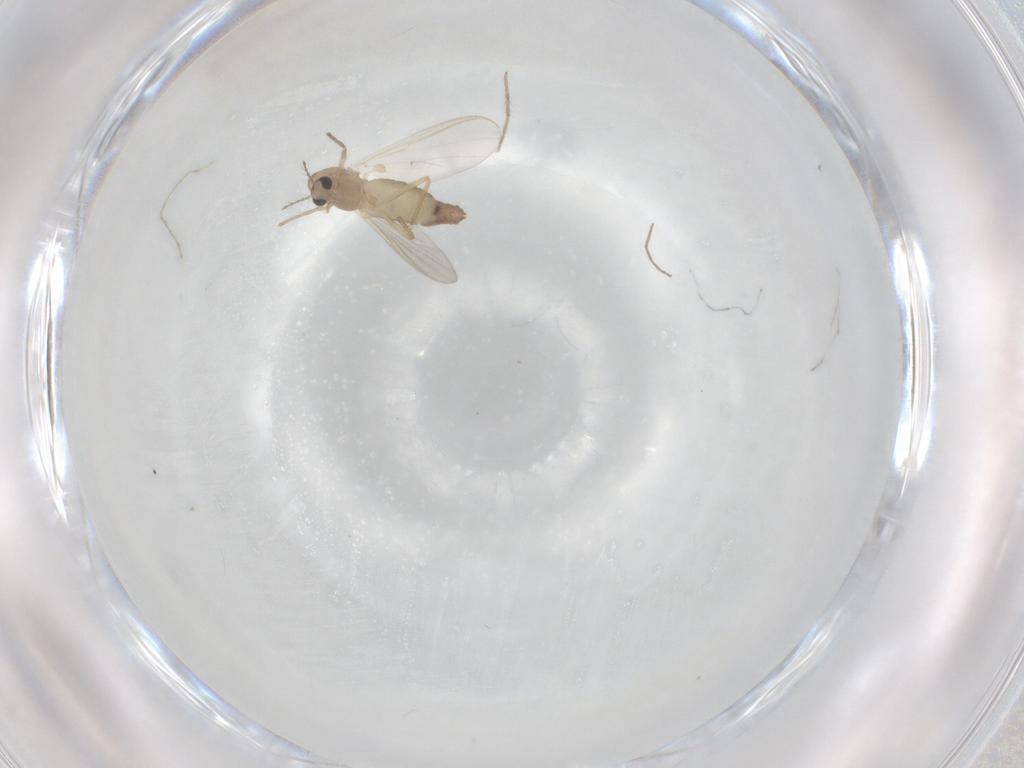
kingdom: Animalia
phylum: Arthropoda
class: Insecta
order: Diptera
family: Chironomidae
